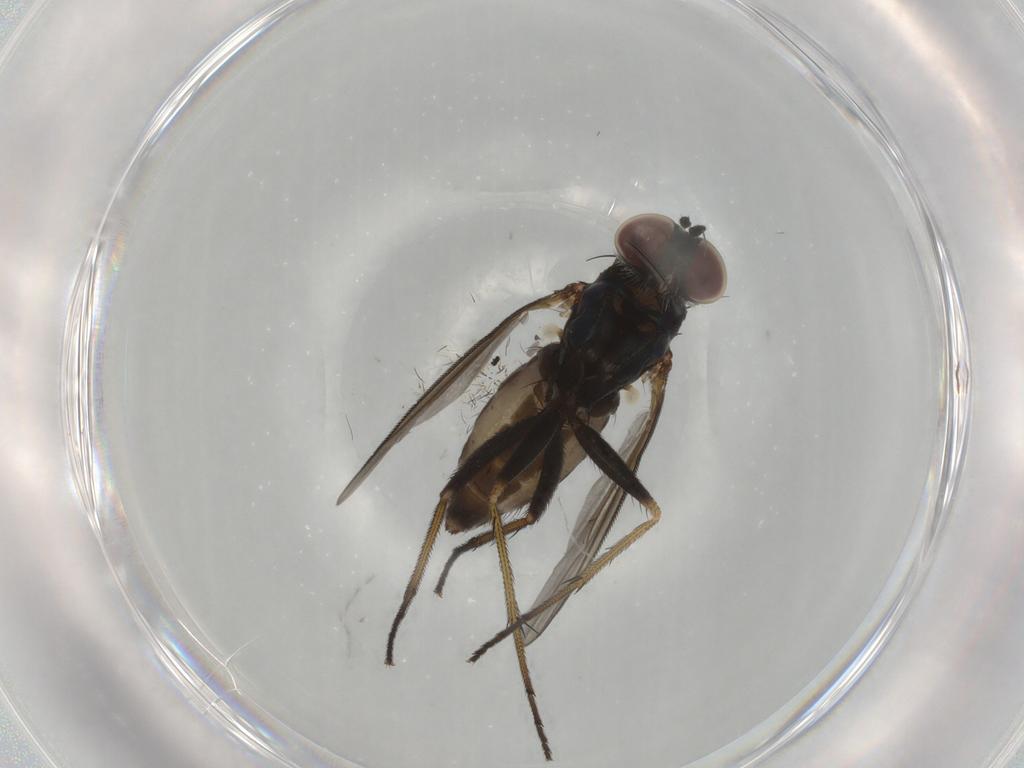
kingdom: Animalia
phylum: Arthropoda
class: Insecta
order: Diptera
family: Dolichopodidae
